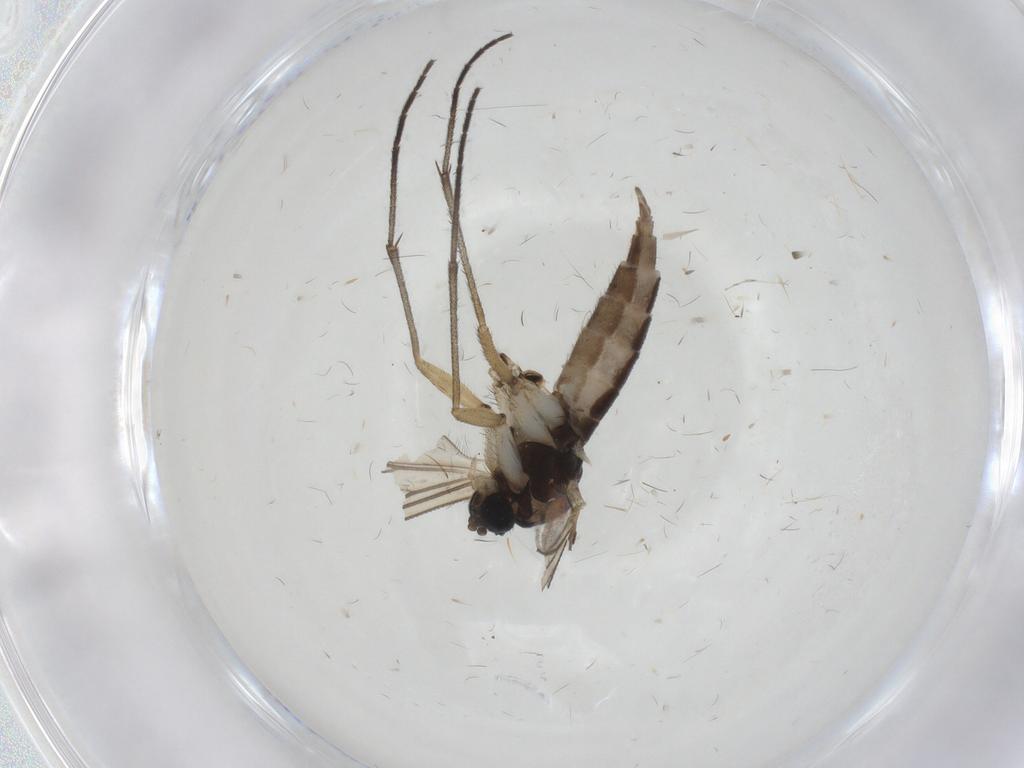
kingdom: Animalia
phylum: Arthropoda
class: Insecta
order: Diptera
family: Sciaridae
